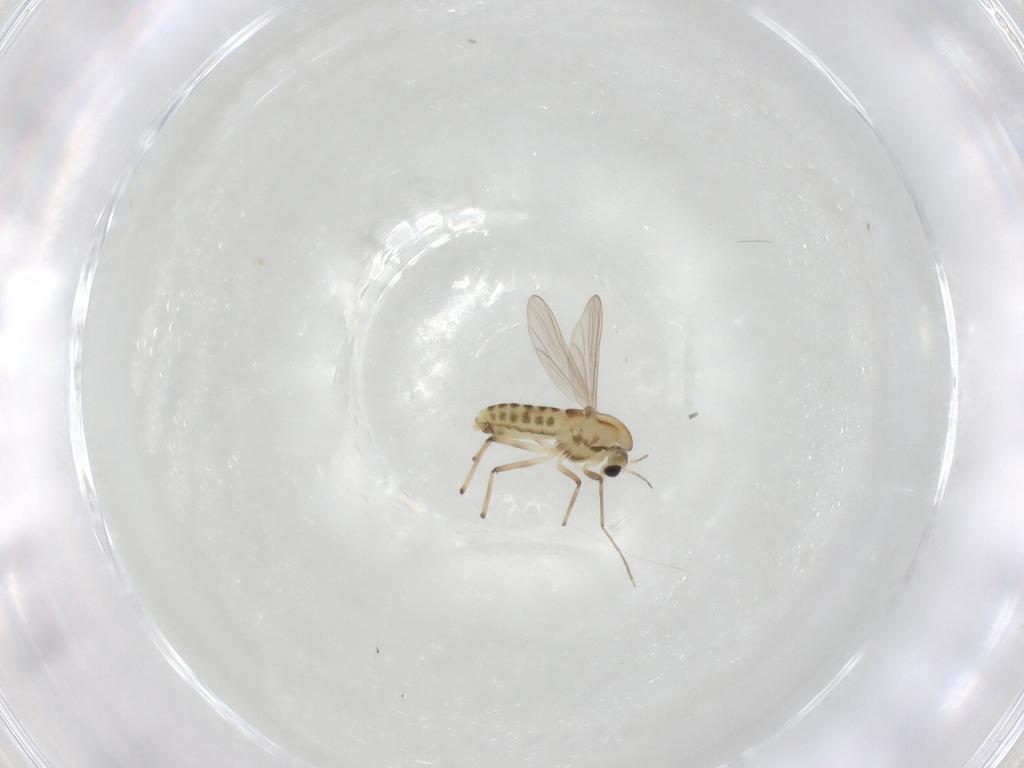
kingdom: Animalia
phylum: Arthropoda
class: Insecta
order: Diptera
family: Chironomidae
